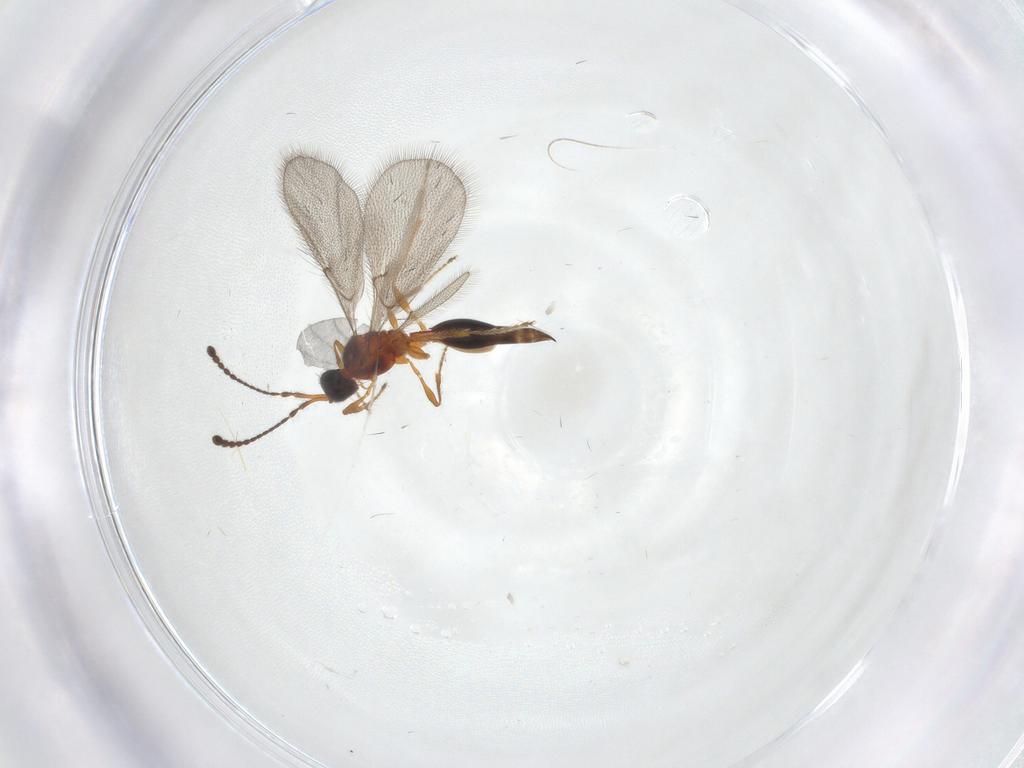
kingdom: Animalia
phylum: Arthropoda
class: Insecta
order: Hymenoptera
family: Diapriidae
